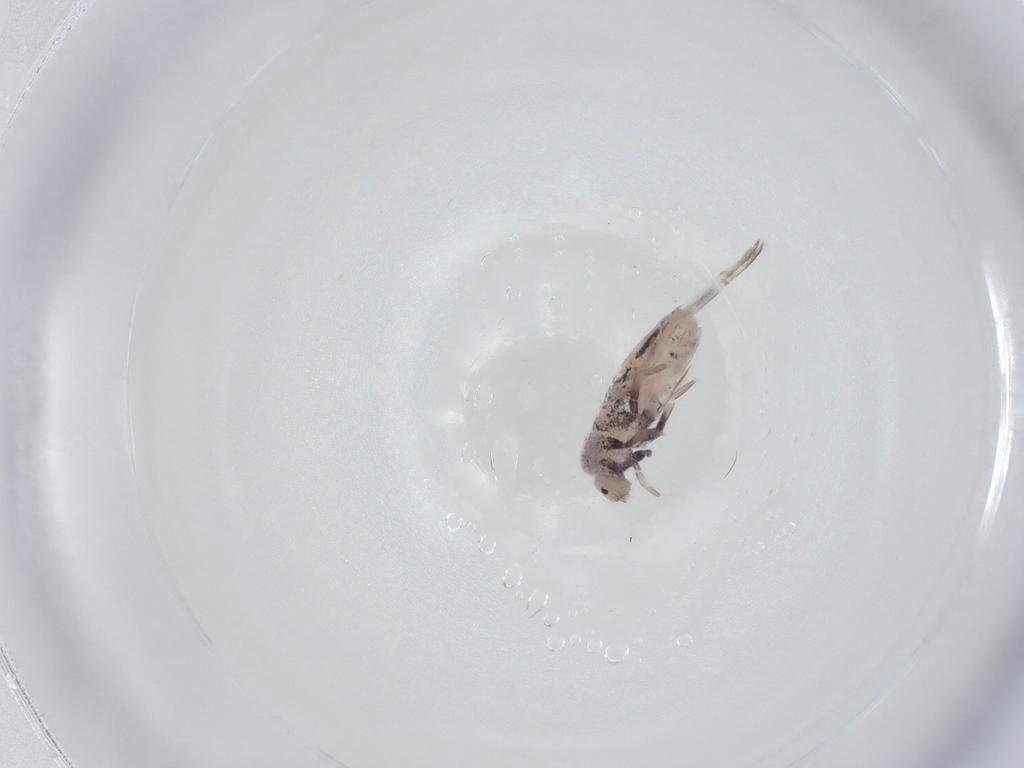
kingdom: Animalia
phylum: Arthropoda
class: Collembola
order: Entomobryomorpha
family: Entomobryidae
